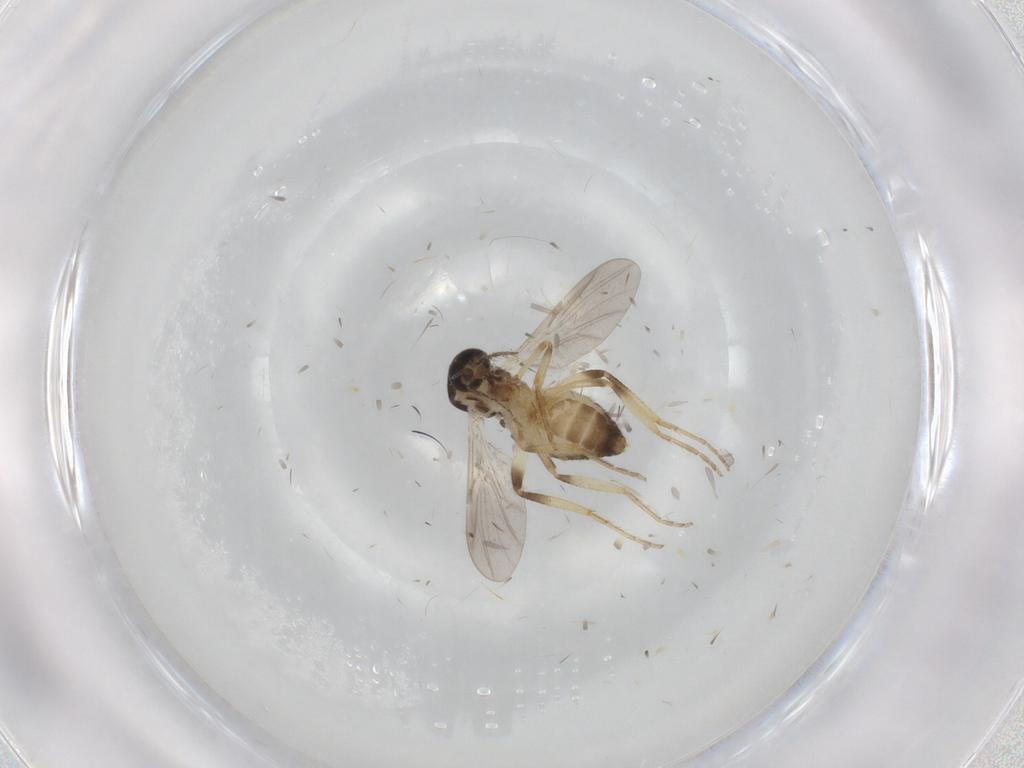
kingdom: Animalia
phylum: Arthropoda
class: Insecta
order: Diptera
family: Ceratopogonidae
